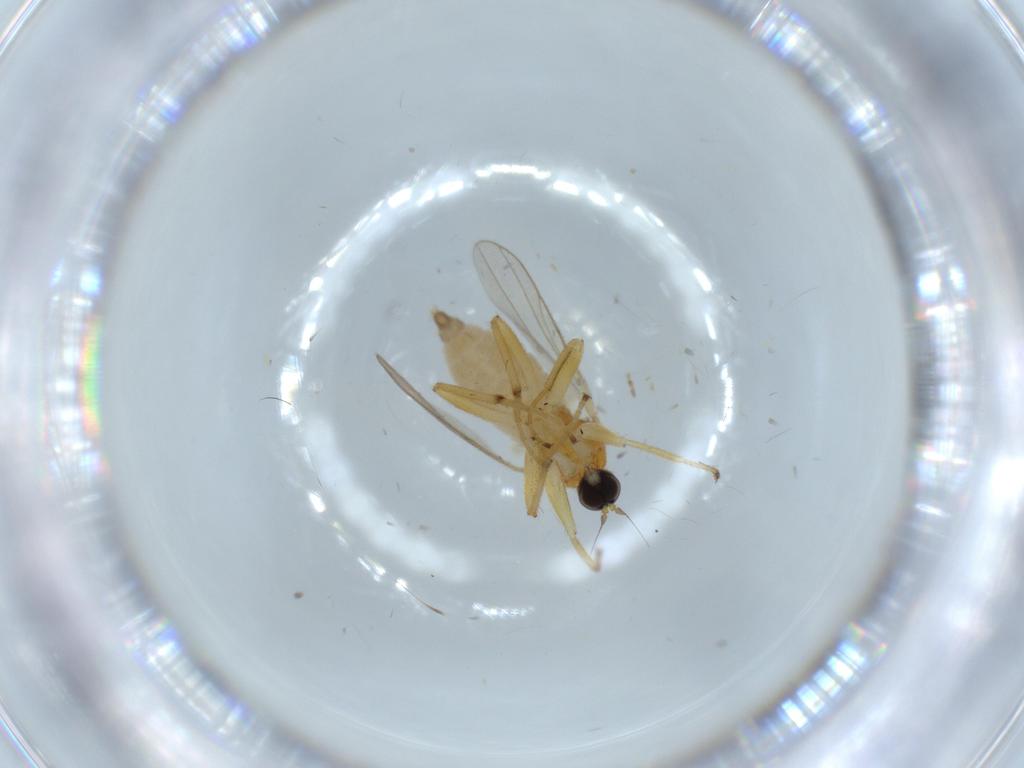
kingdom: Animalia
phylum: Arthropoda
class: Insecta
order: Diptera
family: Hybotidae
